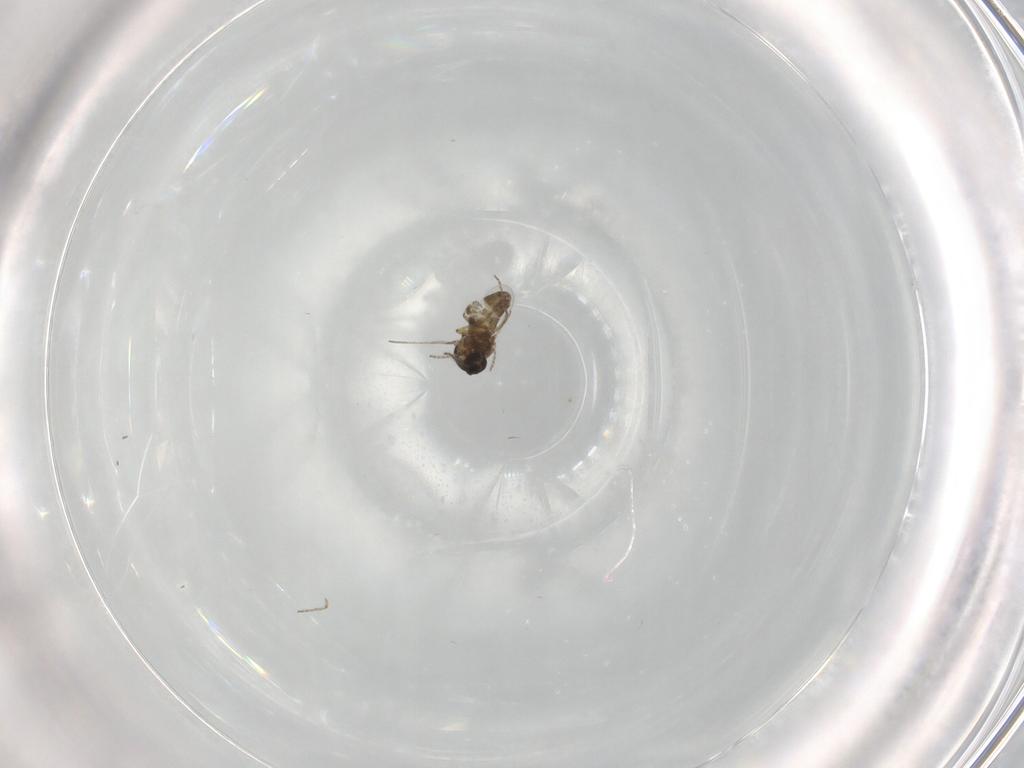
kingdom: Animalia
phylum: Arthropoda
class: Insecta
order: Diptera
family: Ceratopogonidae
